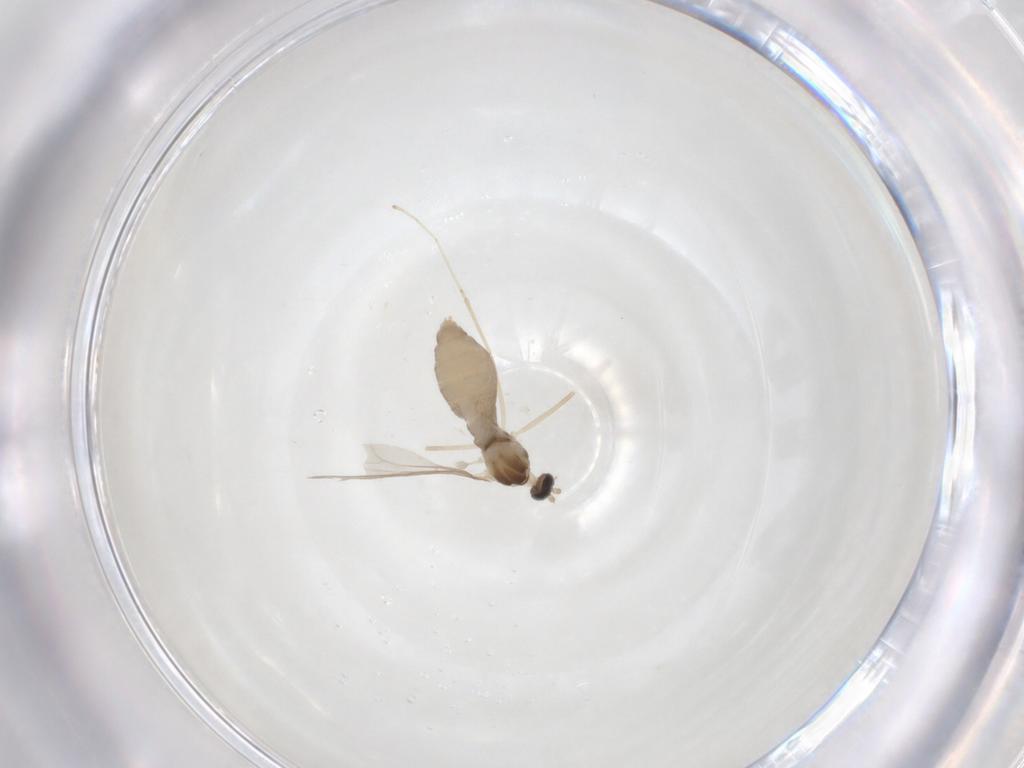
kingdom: Animalia
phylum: Arthropoda
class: Insecta
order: Diptera
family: Cecidomyiidae
